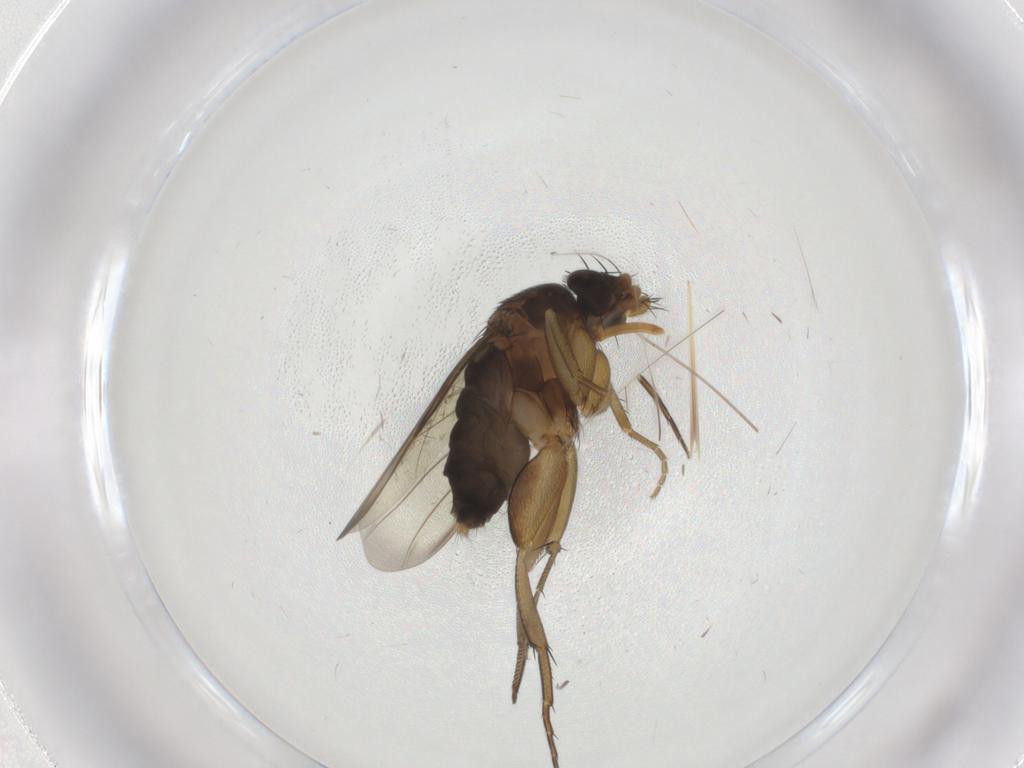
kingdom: Animalia
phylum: Arthropoda
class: Insecta
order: Diptera
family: Phoridae
